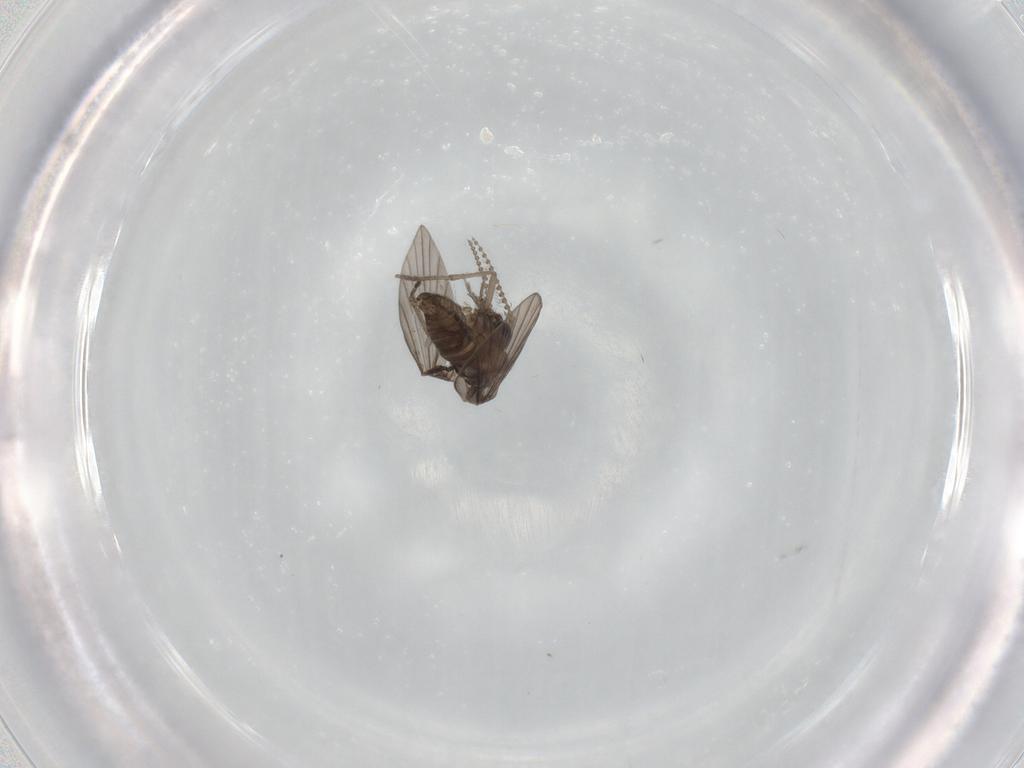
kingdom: Animalia
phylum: Arthropoda
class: Insecta
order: Diptera
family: Psychodidae
